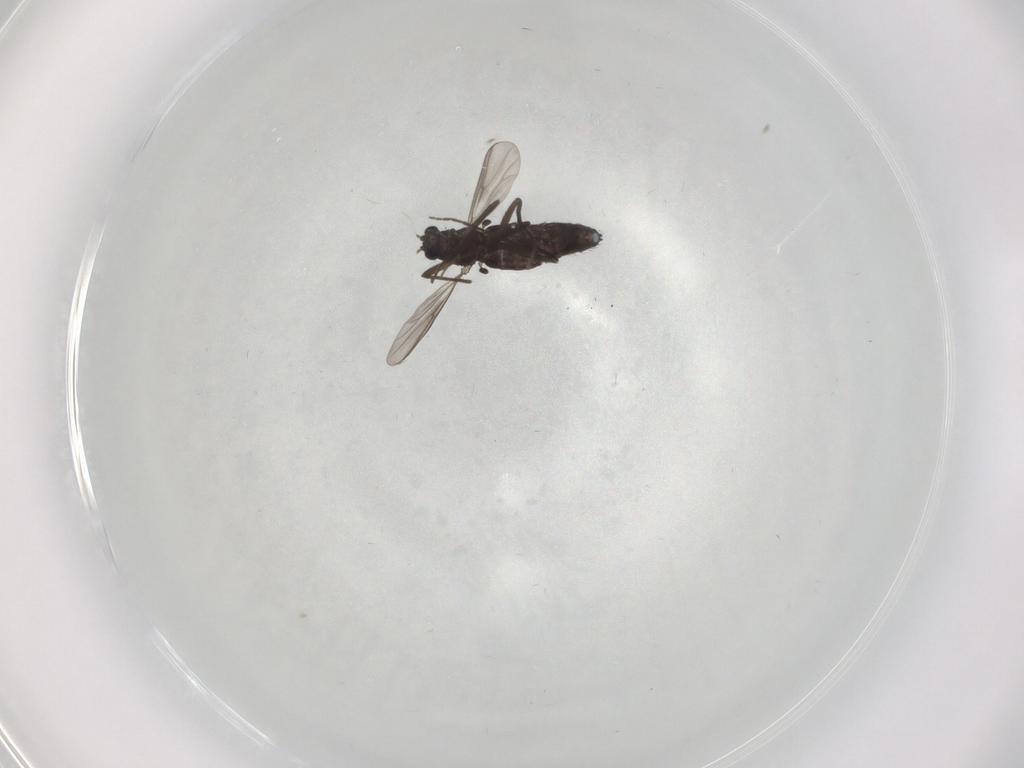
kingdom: Animalia
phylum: Arthropoda
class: Insecta
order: Diptera
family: Chironomidae
